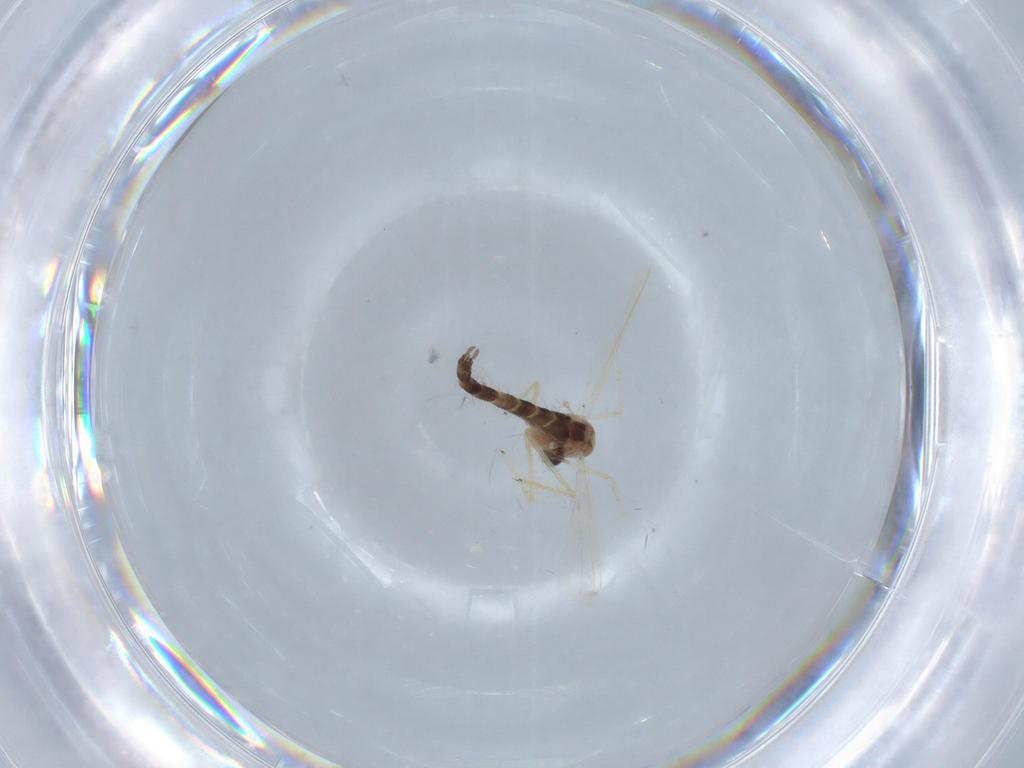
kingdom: Animalia
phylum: Arthropoda
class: Insecta
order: Diptera
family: Chironomidae
